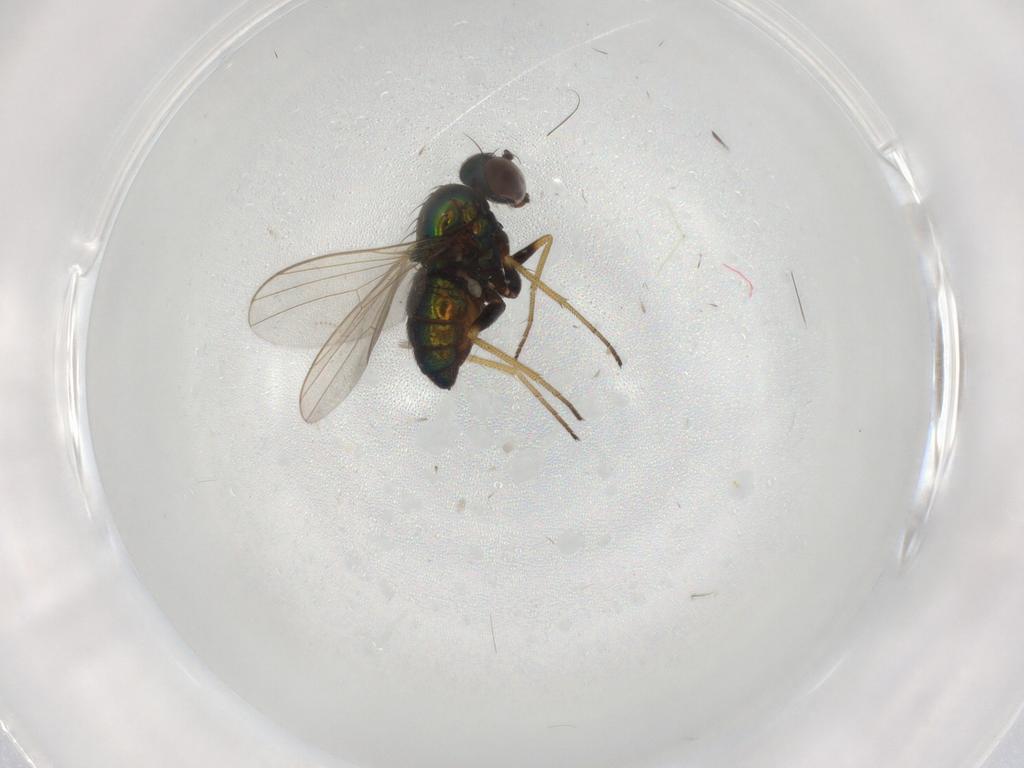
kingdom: Animalia
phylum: Arthropoda
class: Insecta
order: Diptera
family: Dolichopodidae
